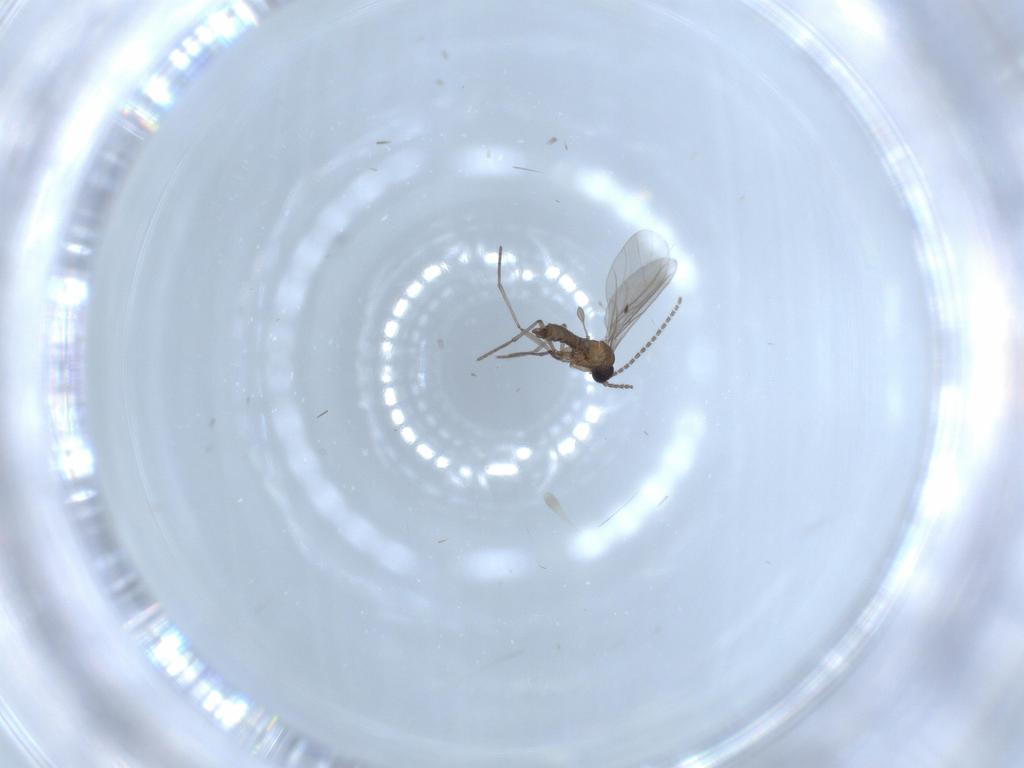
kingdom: Animalia
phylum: Arthropoda
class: Insecta
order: Diptera
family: Sciaridae
